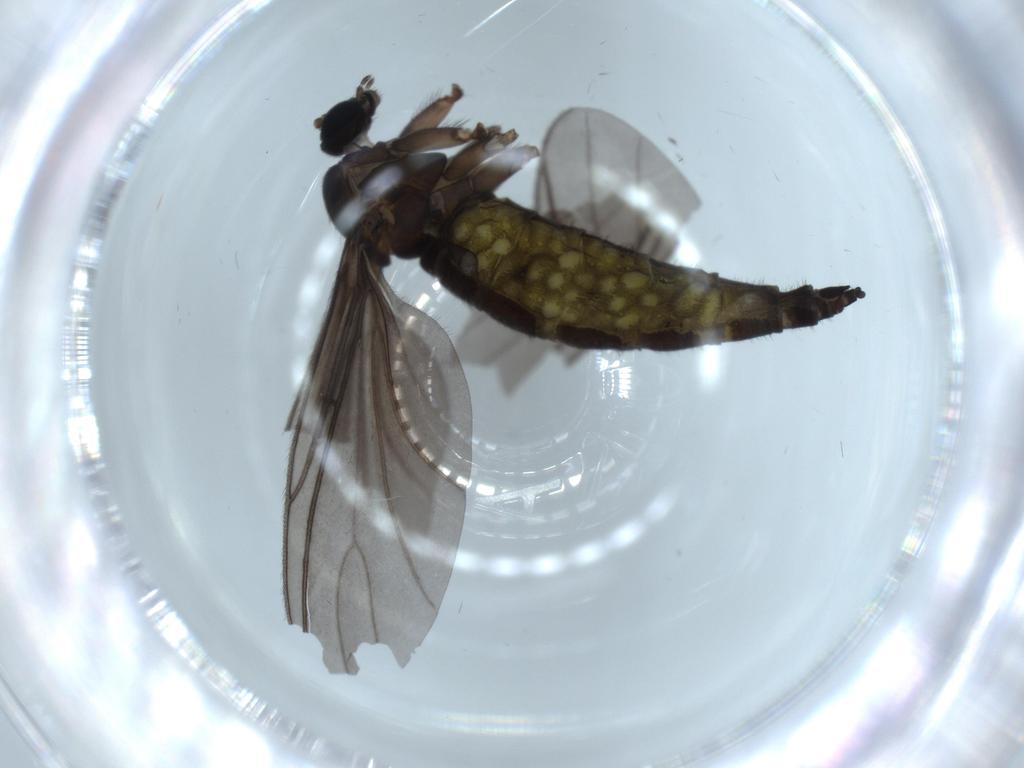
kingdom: Animalia
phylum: Arthropoda
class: Insecta
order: Diptera
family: Sciaridae
